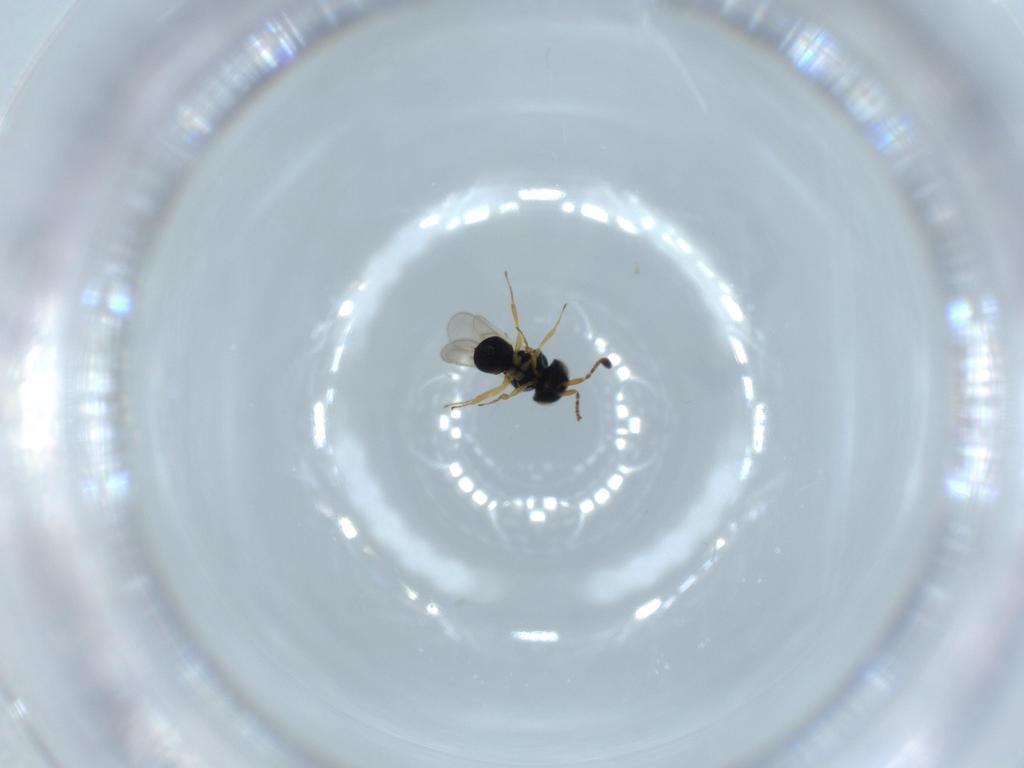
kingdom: Animalia
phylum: Arthropoda
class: Insecta
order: Hymenoptera
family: Scelionidae
